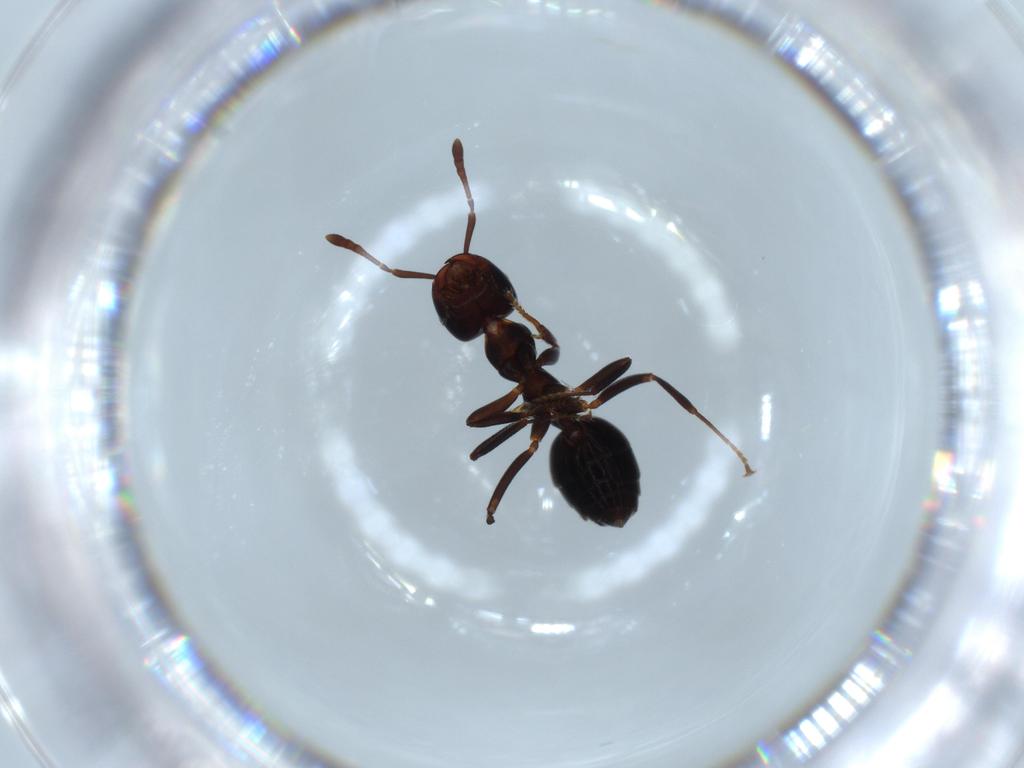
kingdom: Animalia
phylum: Arthropoda
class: Insecta
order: Hymenoptera
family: Formicidae
